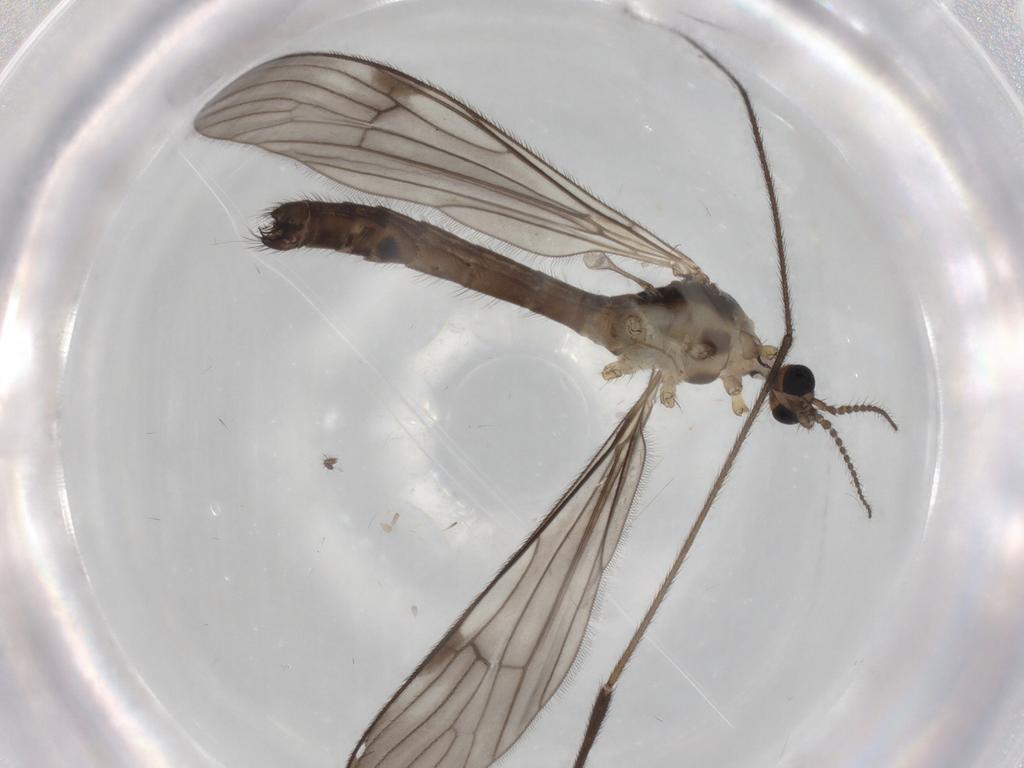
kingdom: Animalia
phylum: Arthropoda
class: Insecta
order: Diptera
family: Limoniidae
